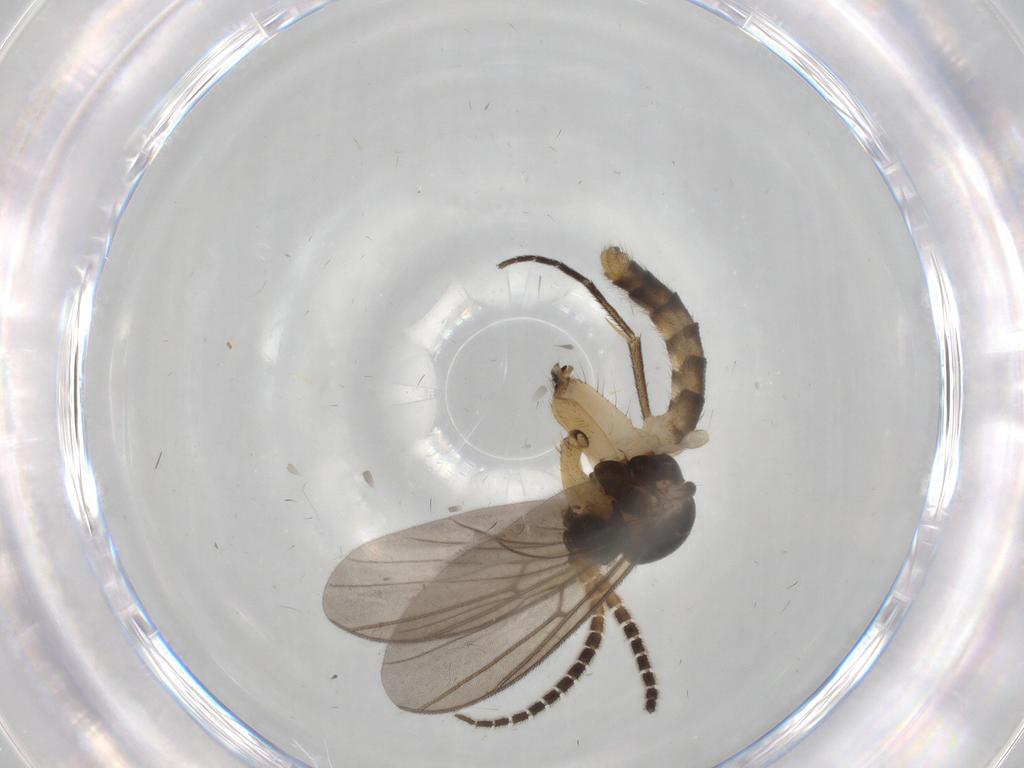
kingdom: Animalia
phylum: Arthropoda
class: Insecta
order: Diptera
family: Hybotidae
